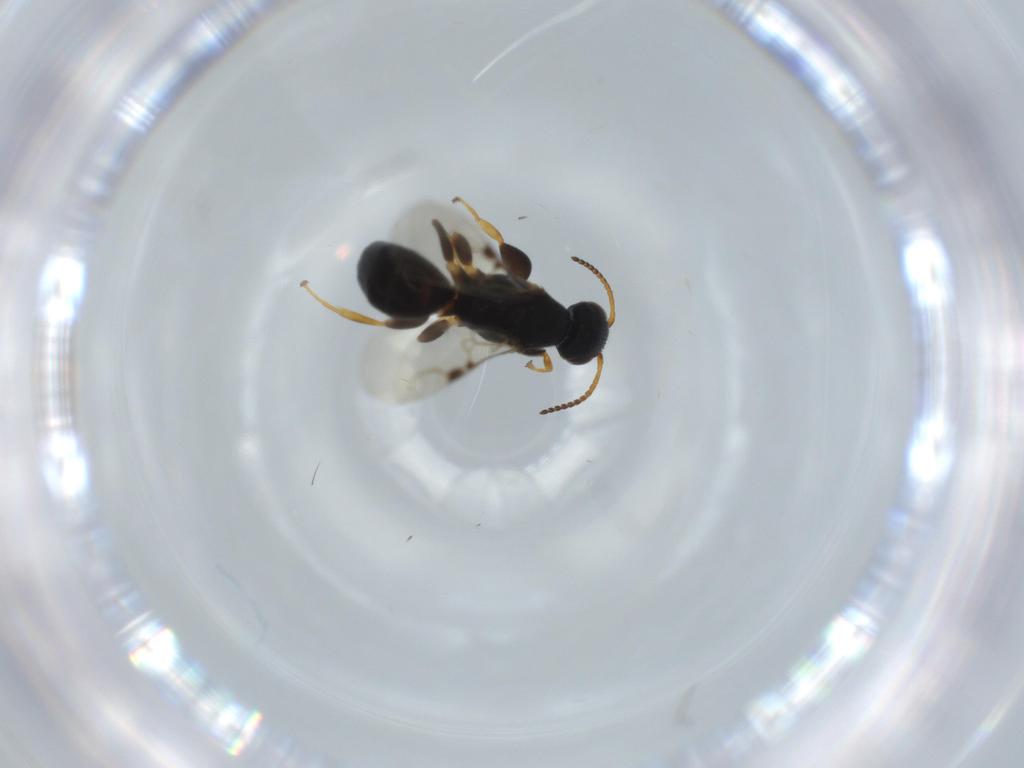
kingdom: Animalia
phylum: Arthropoda
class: Insecta
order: Hymenoptera
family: Bethylidae
